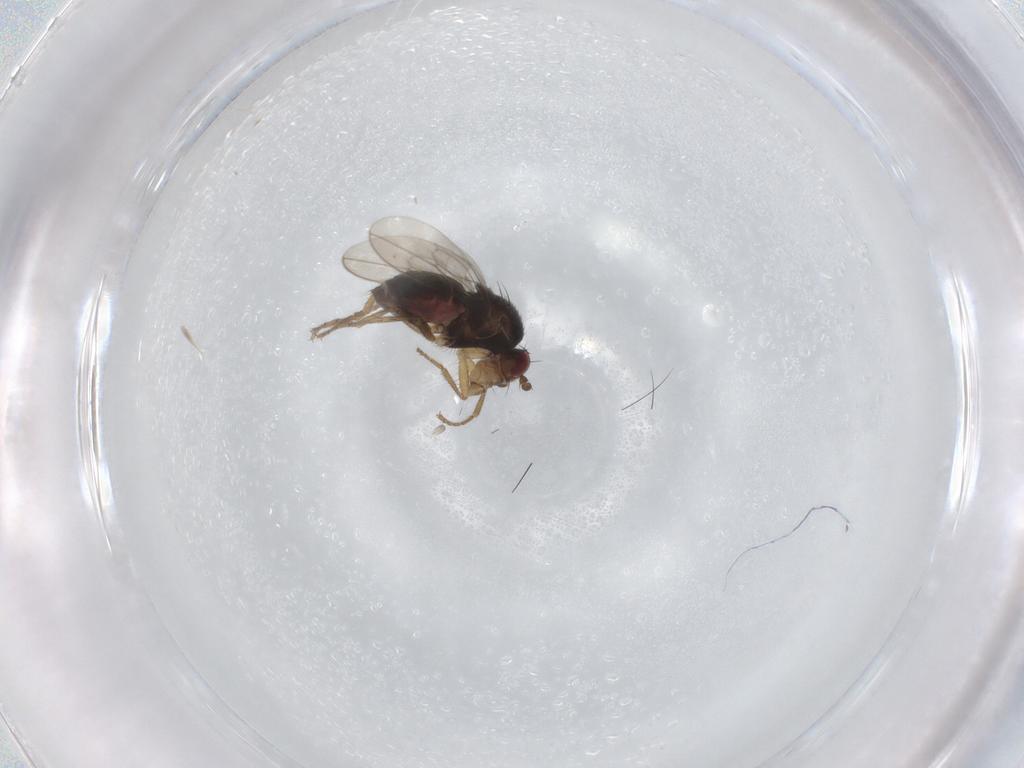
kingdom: Animalia
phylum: Arthropoda
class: Insecta
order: Diptera
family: Sphaeroceridae
